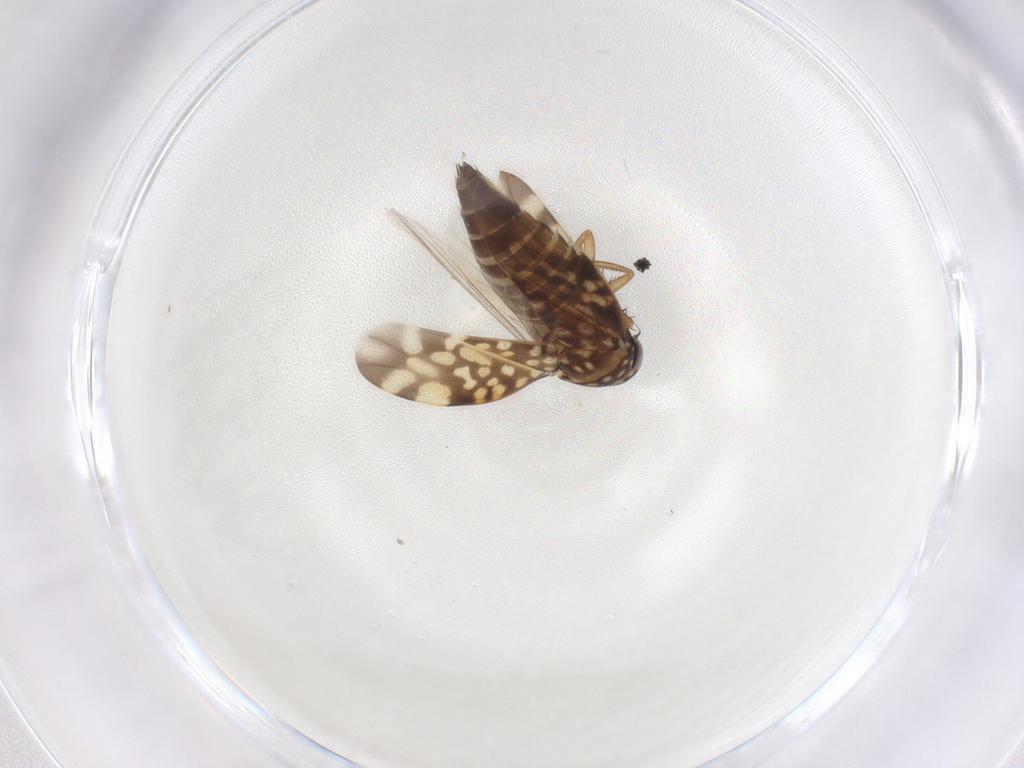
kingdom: Animalia
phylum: Arthropoda
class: Insecta
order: Hemiptera
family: Cicadellidae
